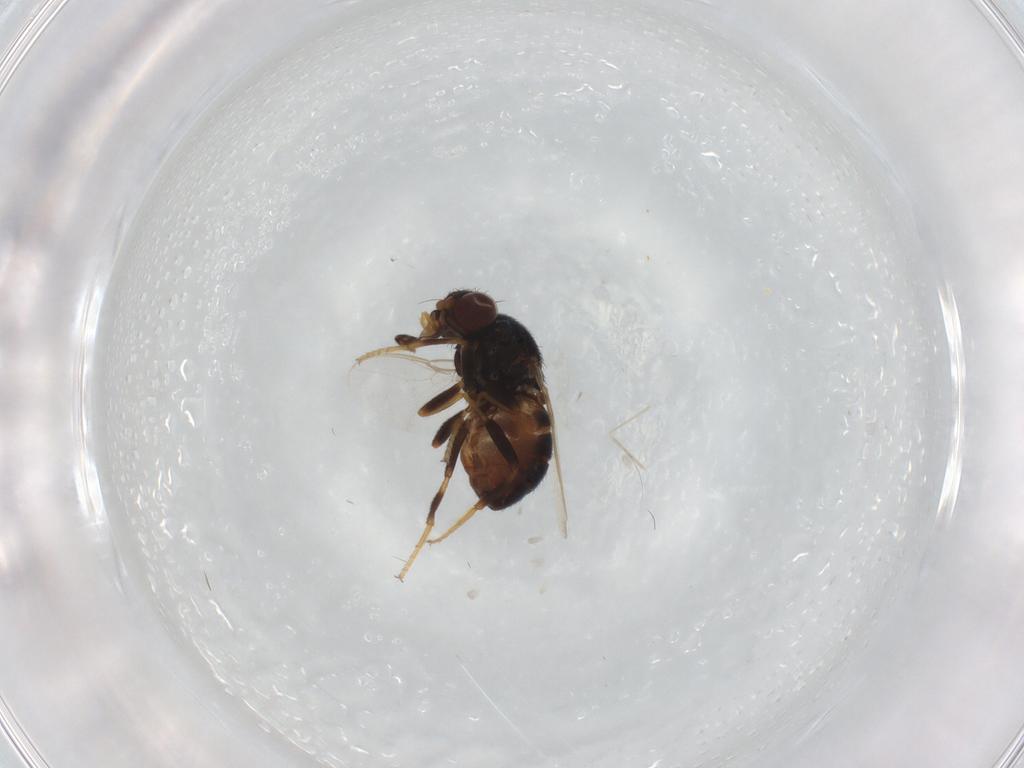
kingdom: Animalia
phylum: Arthropoda
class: Insecta
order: Diptera
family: Chloropidae
